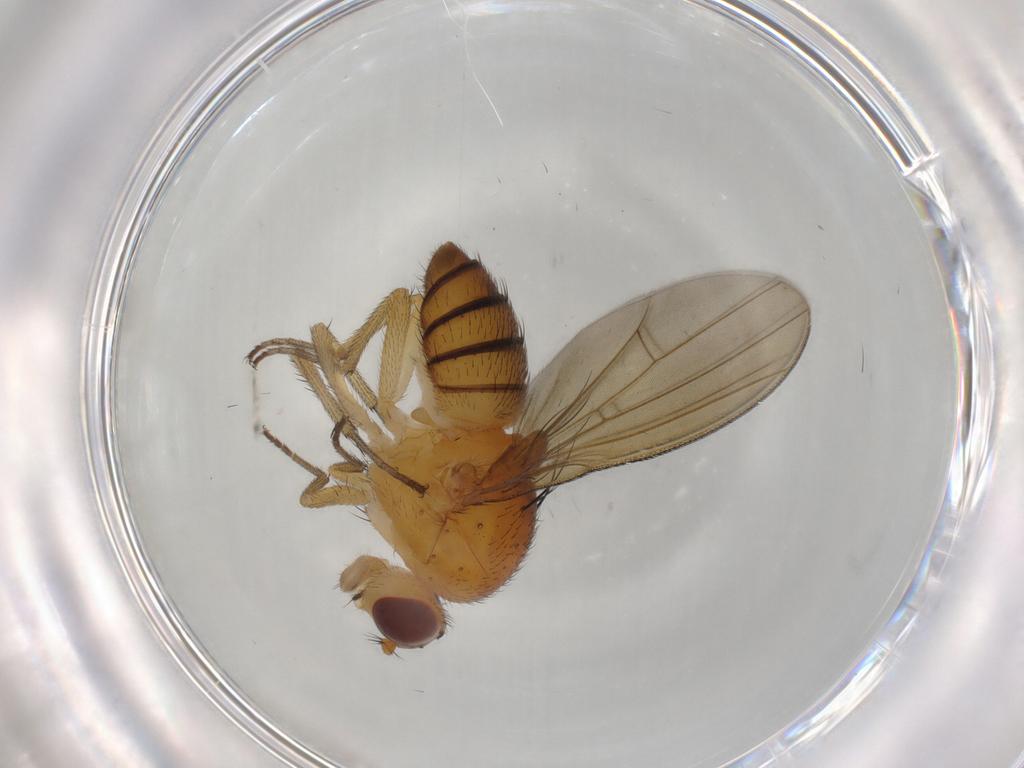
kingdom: Animalia
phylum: Arthropoda
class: Insecta
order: Diptera
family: Lauxaniidae
